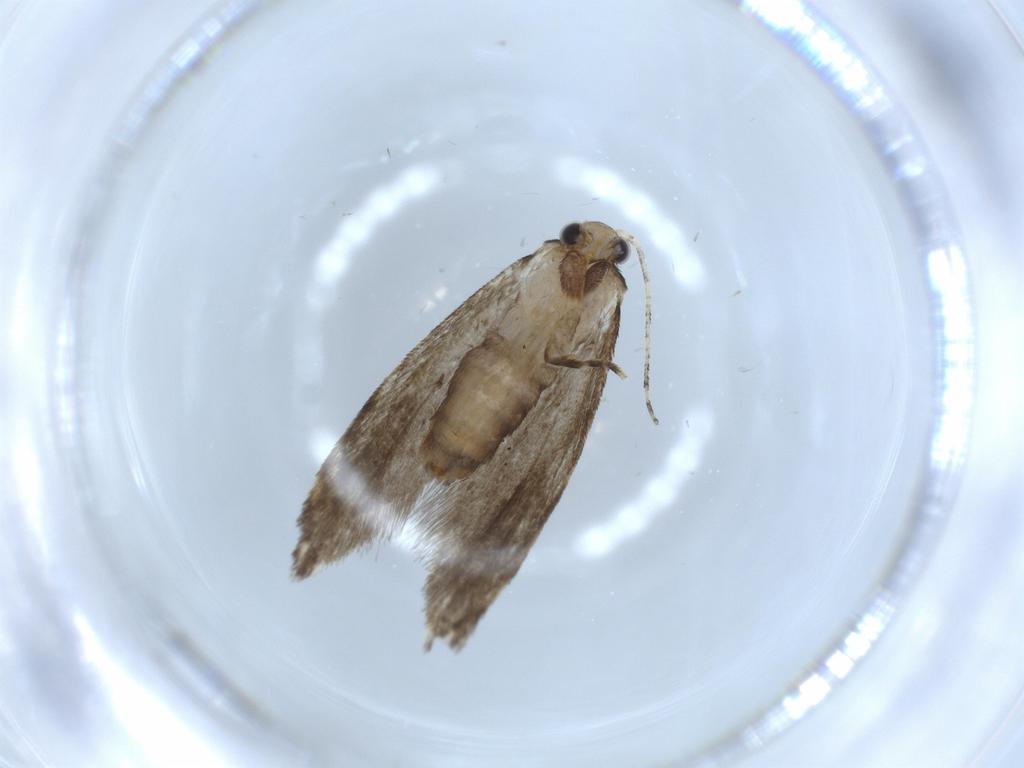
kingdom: Animalia
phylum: Arthropoda
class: Insecta
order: Lepidoptera
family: Tineidae
